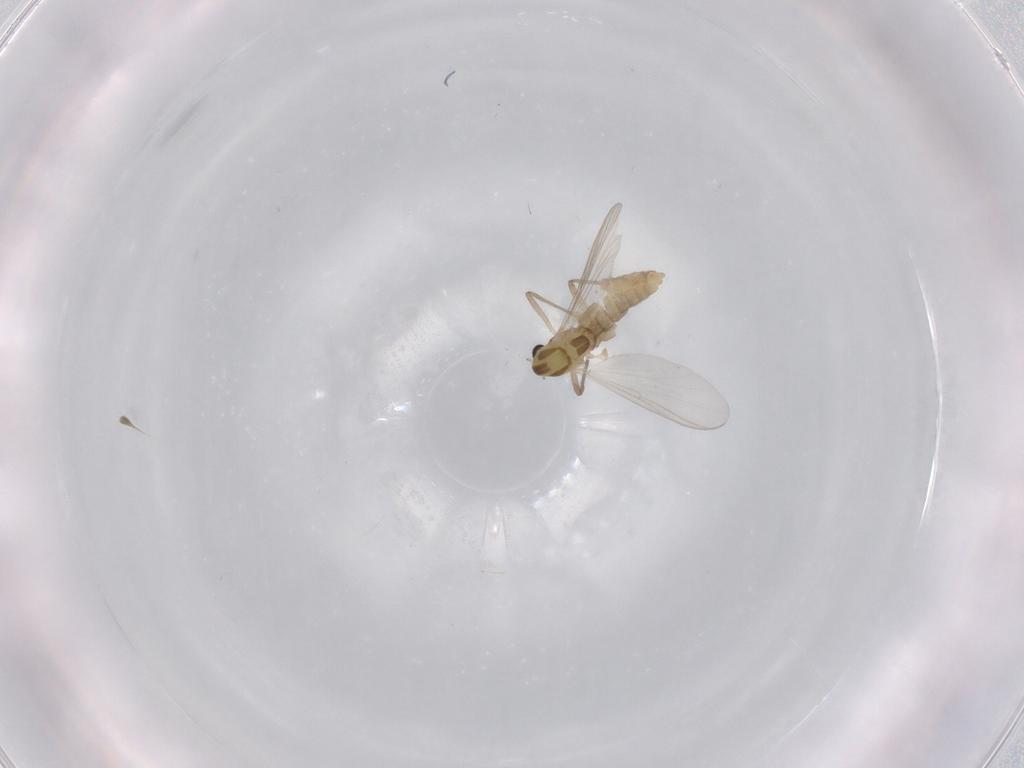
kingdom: Animalia
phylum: Arthropoda
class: Insecta
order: Diptera
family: Chironomidae
